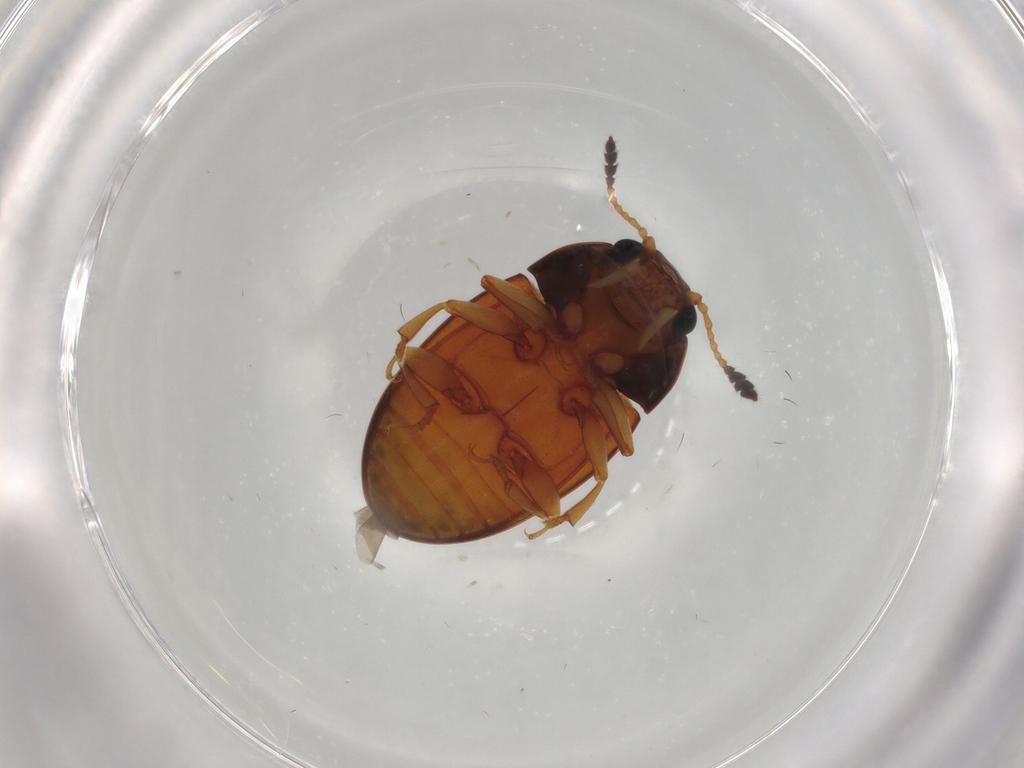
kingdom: Animalia
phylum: Arthropoda
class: Insecta
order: Coleoptera
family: Erotylidae
